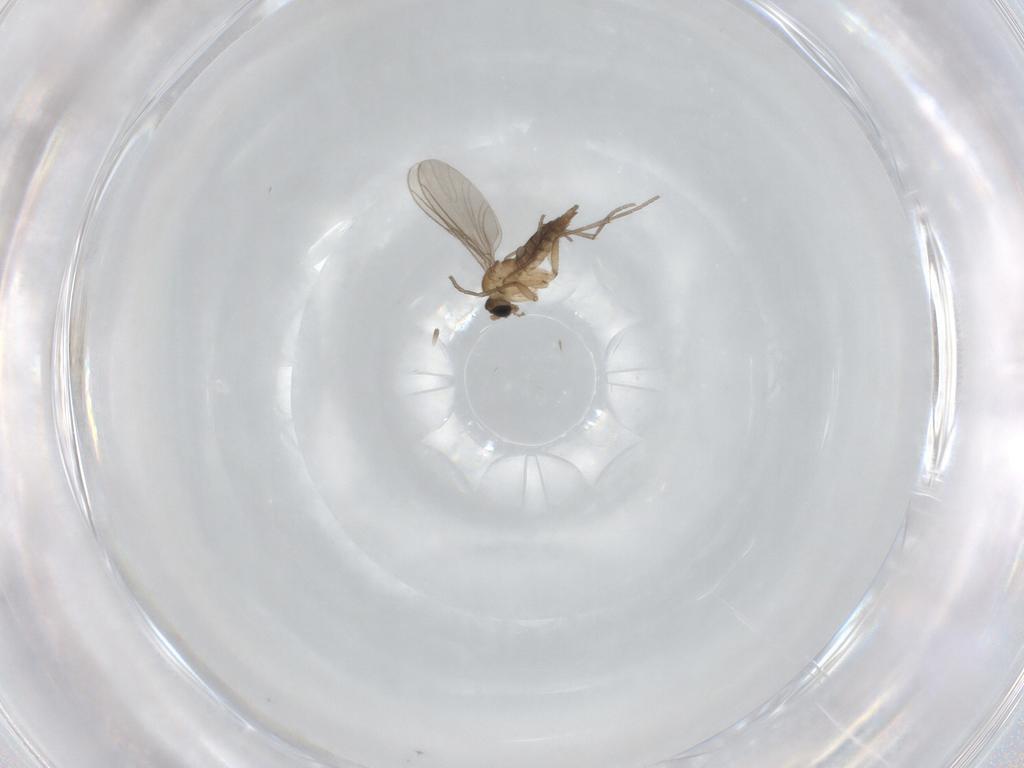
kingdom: Animalia
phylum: Arthropoda
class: Insecta
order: Diptera
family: Sciaridae
